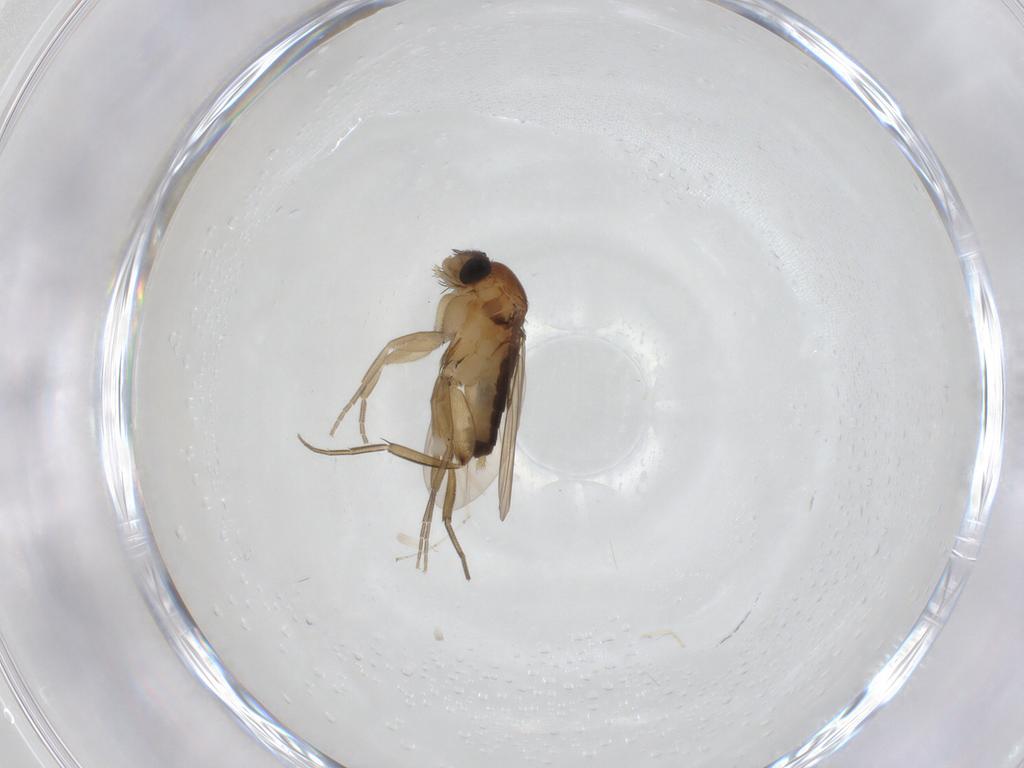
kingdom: Animalia
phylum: Arthropoda
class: Insecta
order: Diptera
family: Phoridae
